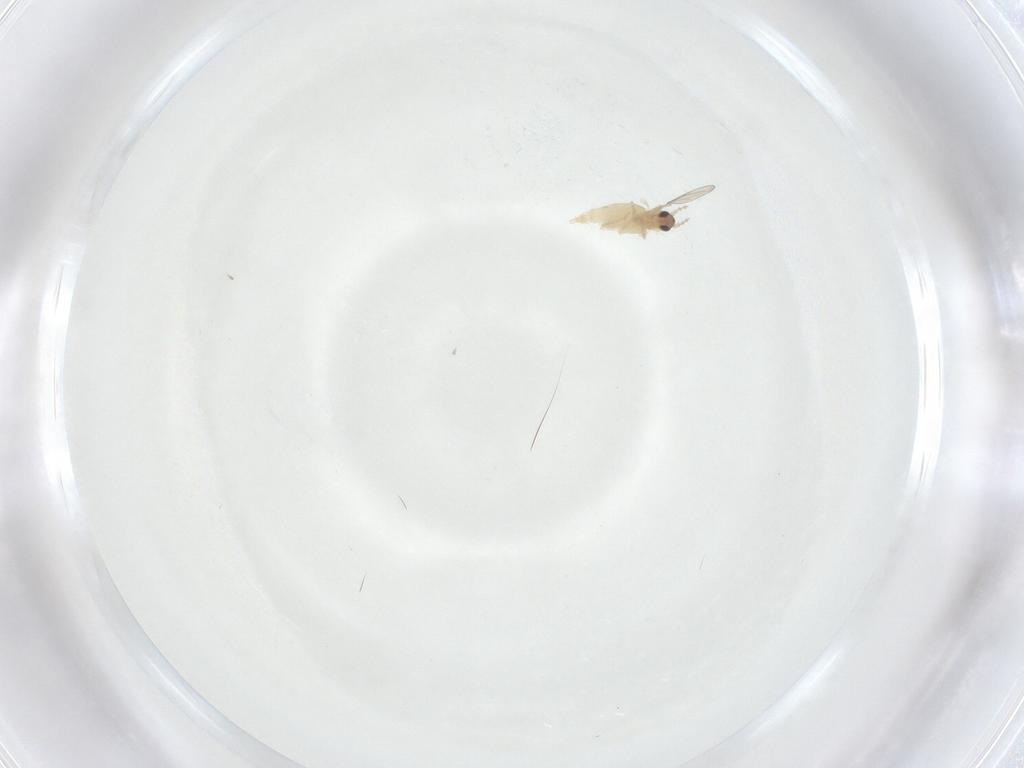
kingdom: Animalia
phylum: Arthropoda
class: Insecta
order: Diptera
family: Cecidomyiidae
